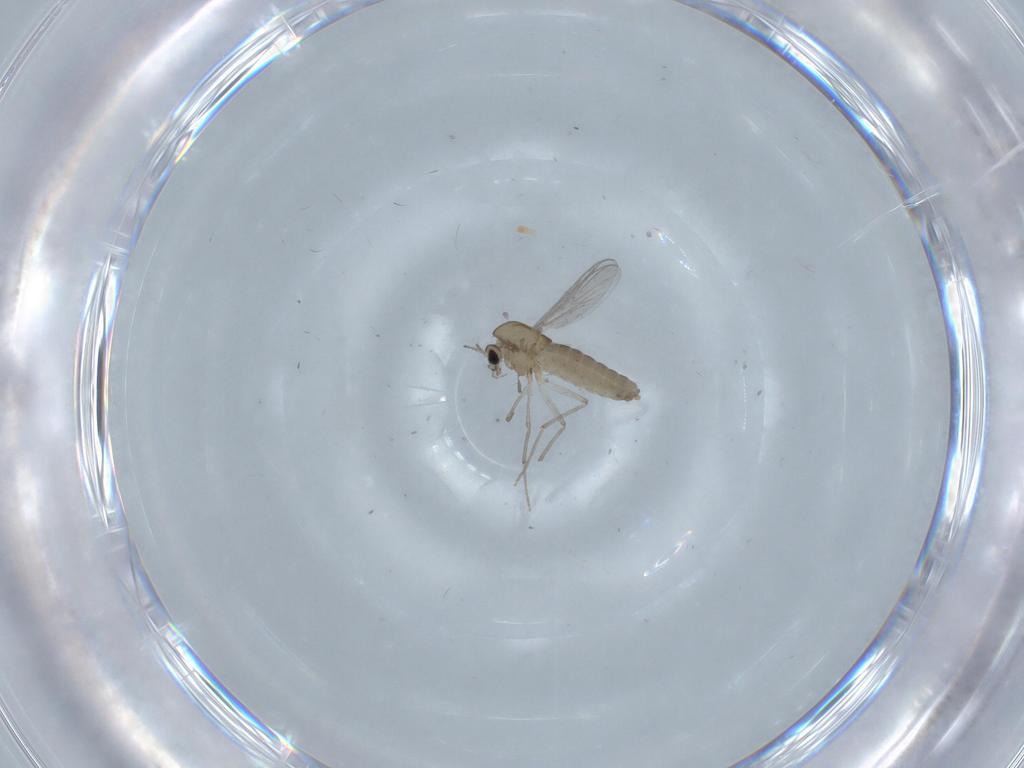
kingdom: Animalia
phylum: Arthropoda
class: Insecta
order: Diptera
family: Chironomidae
